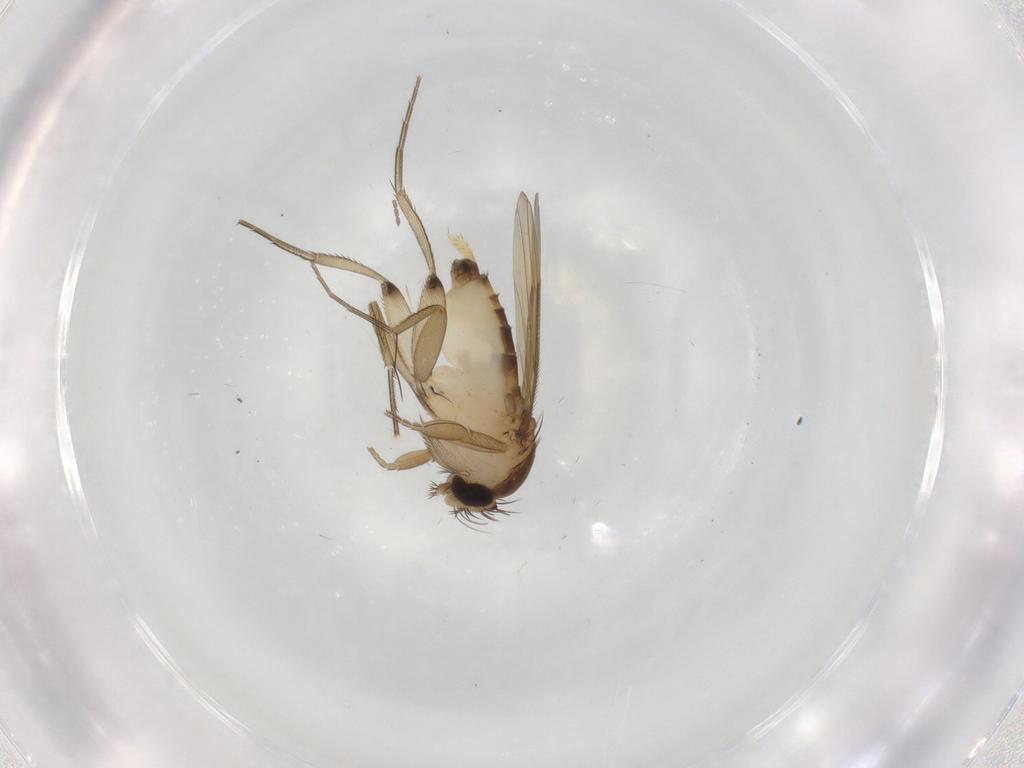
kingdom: Animalia
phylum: Arthropoda
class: Insecta
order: Diptera
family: Phoridae
